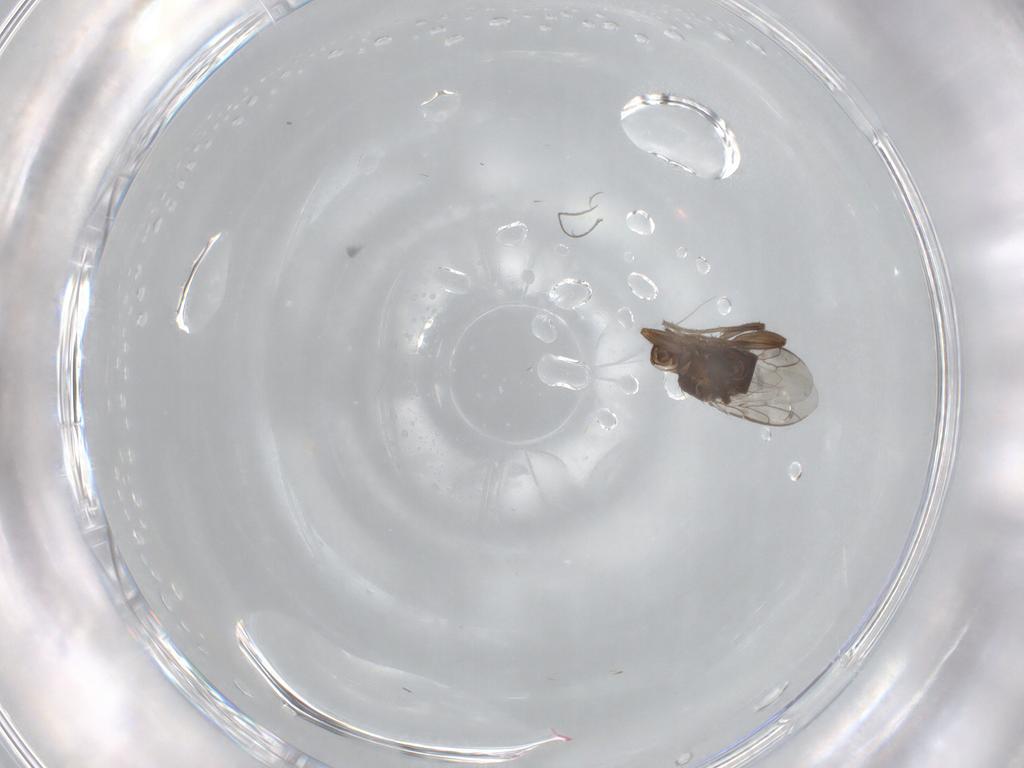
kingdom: Animalia
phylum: Arthropoda
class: Insecta
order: Diptera
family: Sphaeroceridae
